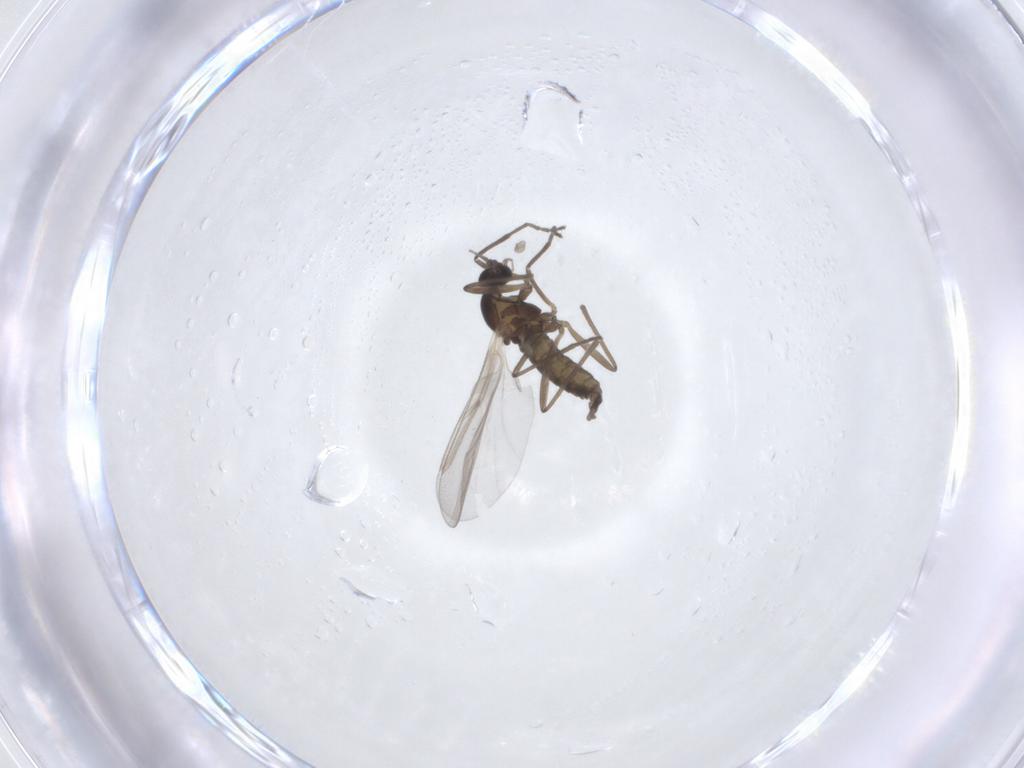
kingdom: Animalia
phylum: Arthropoda
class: Insecta
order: Diptera
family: Cecidomyiidae
